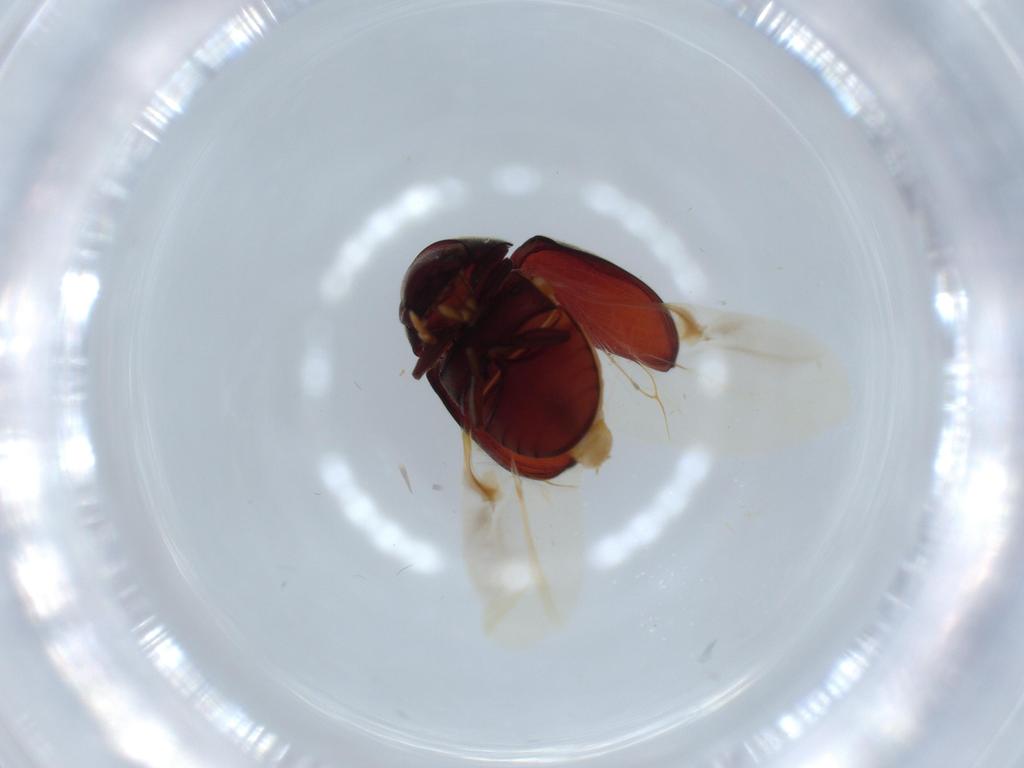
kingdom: Animalia
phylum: Arthropoda
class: Insecta
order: Coleoptera
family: Ptinidae
